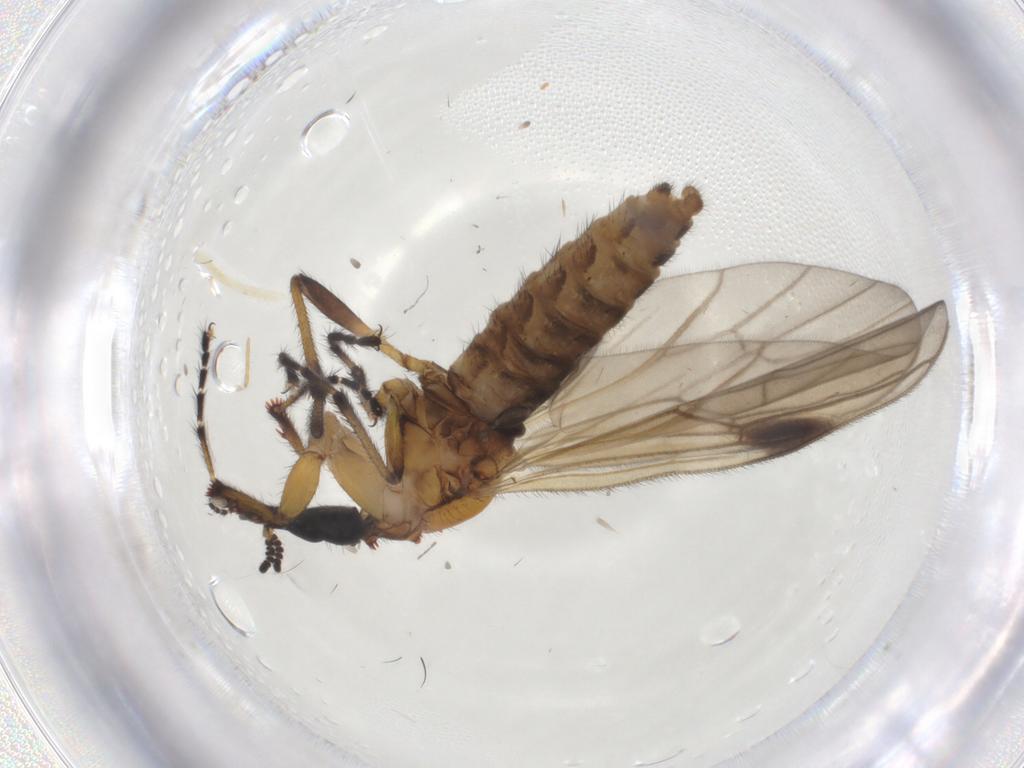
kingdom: Animalia
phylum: Arthropoda
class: Insecta
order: Diptera
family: Bibionidae
